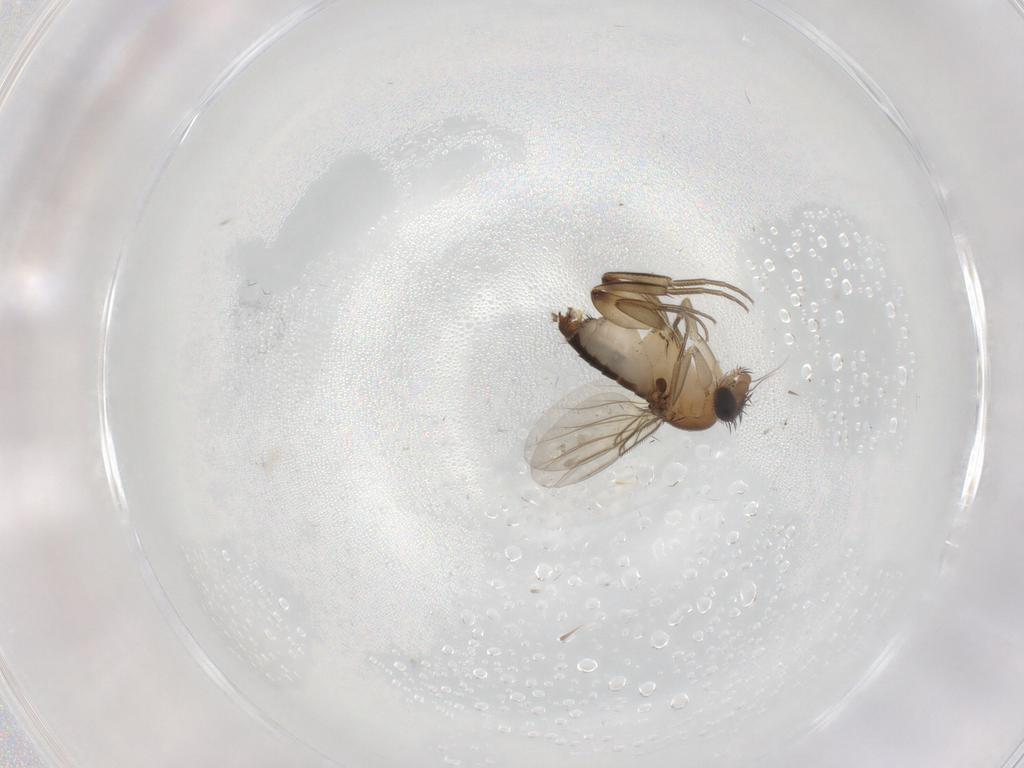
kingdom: Animalia
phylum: Arthropoda
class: Insecta
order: Diptera
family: Phoridae
